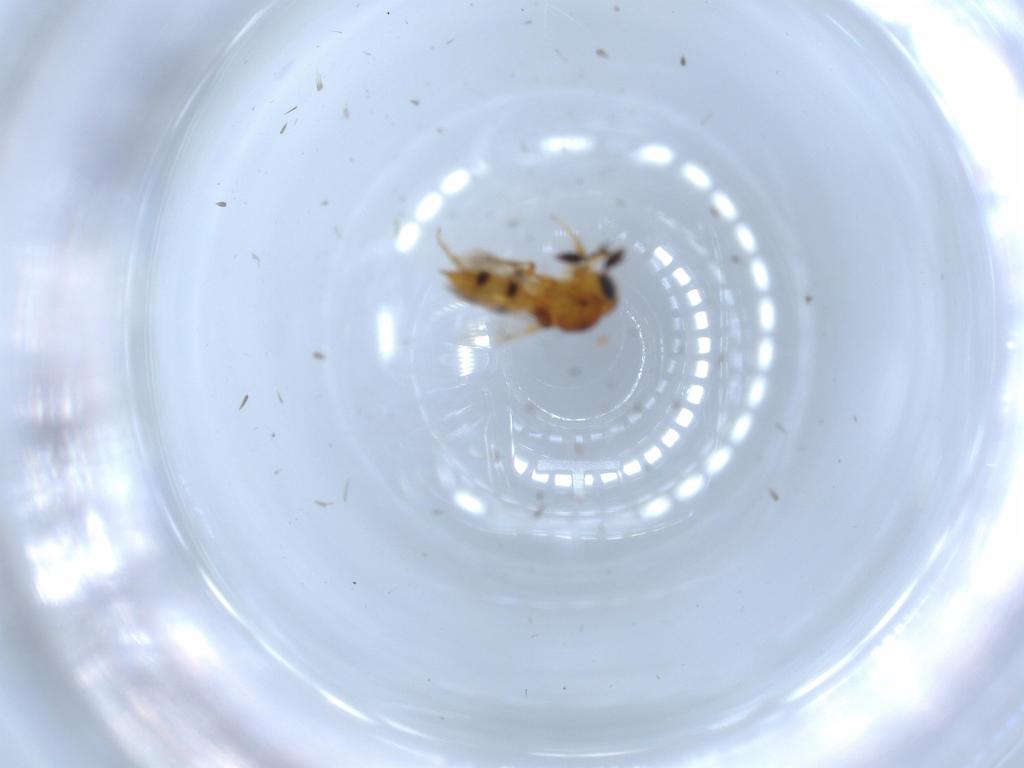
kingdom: Animalia
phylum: Arthropoda
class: Insecta
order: Hymenoptera
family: Scelionidae
